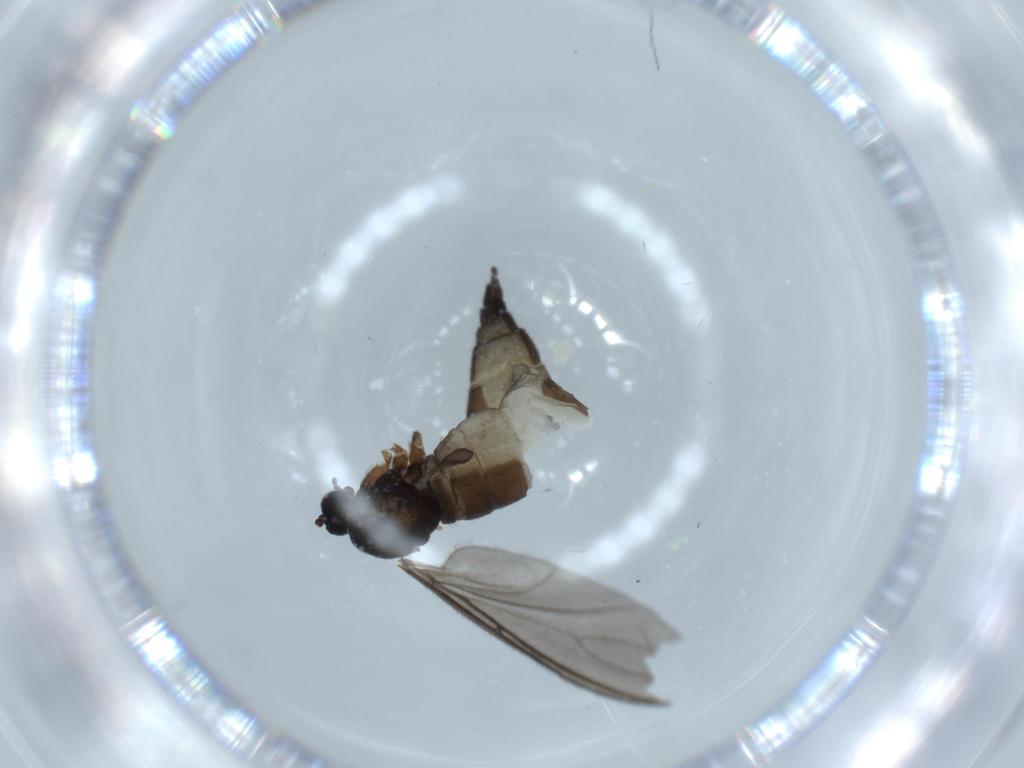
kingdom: Animalia
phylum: Arthropoda
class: Insecta
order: Diptera
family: Sciaridae
